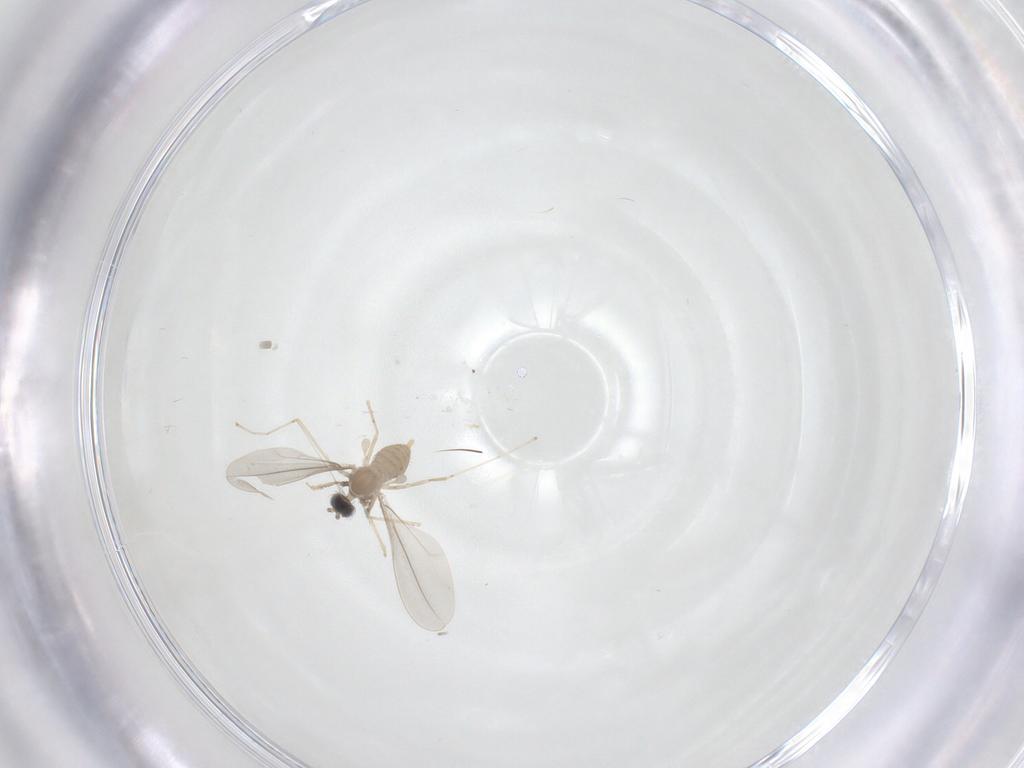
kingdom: Animalia
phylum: Arthropoda
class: Insecta
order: Diptera
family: Cecidomyiidae
